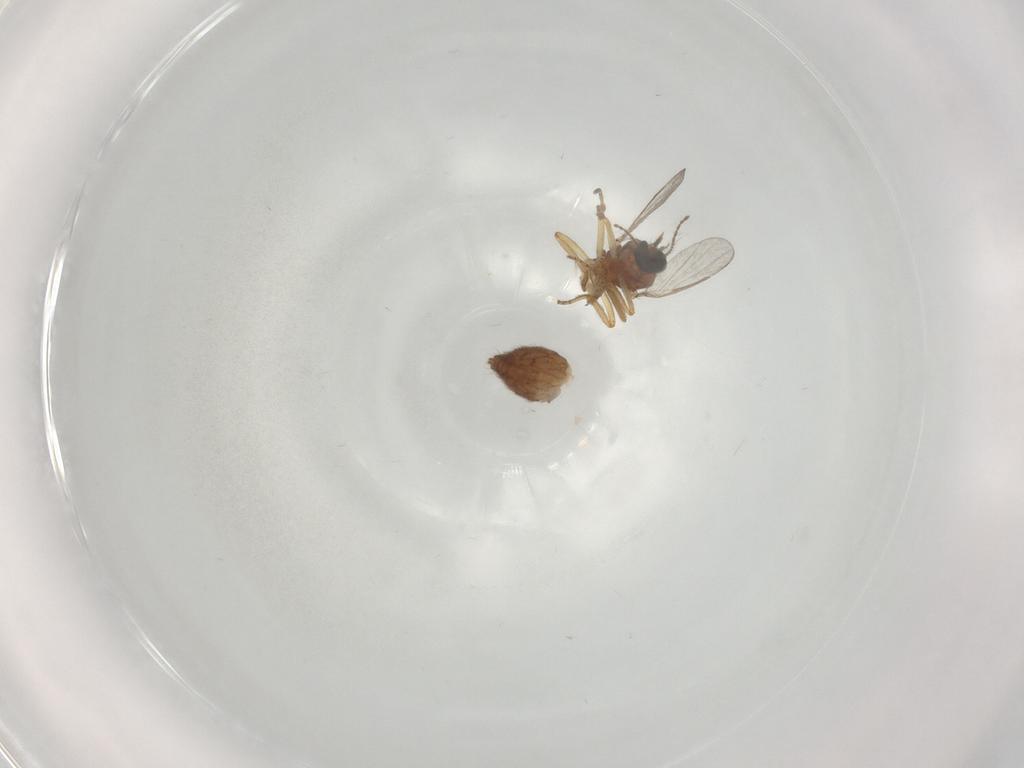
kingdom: Animalia
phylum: Arthropoda
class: Insecta
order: Diptera
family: Ceratopogonidae
